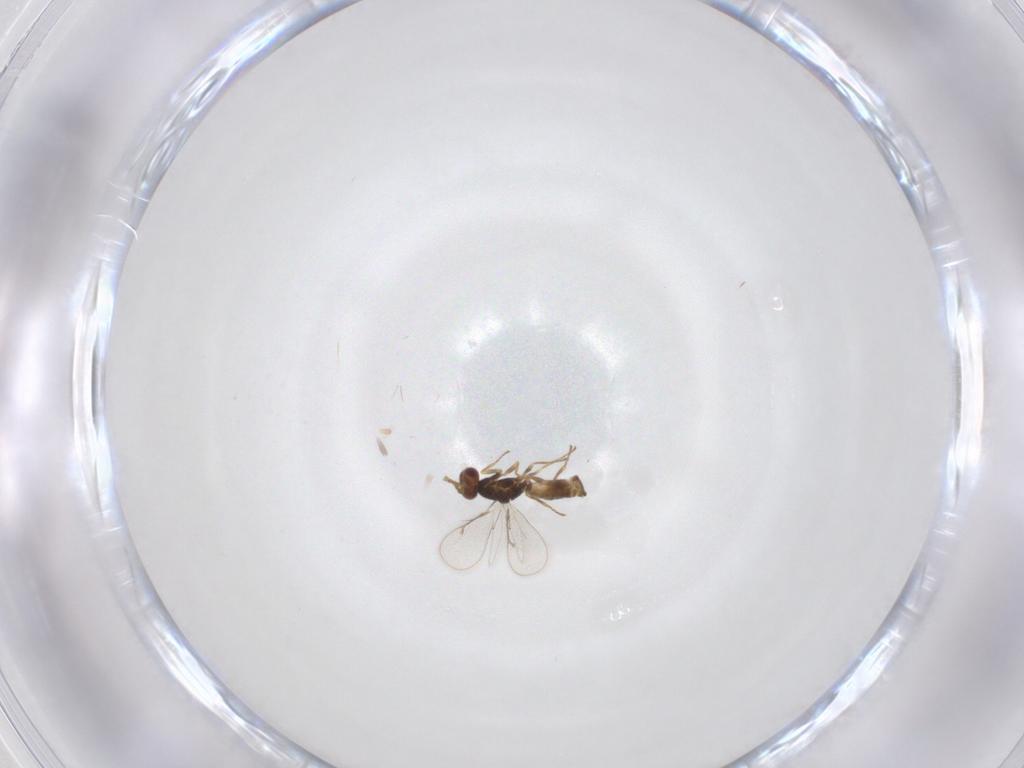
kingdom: Animalia
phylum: Arthropoda
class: Insecta
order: Hymenoptera
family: Eulophidae
